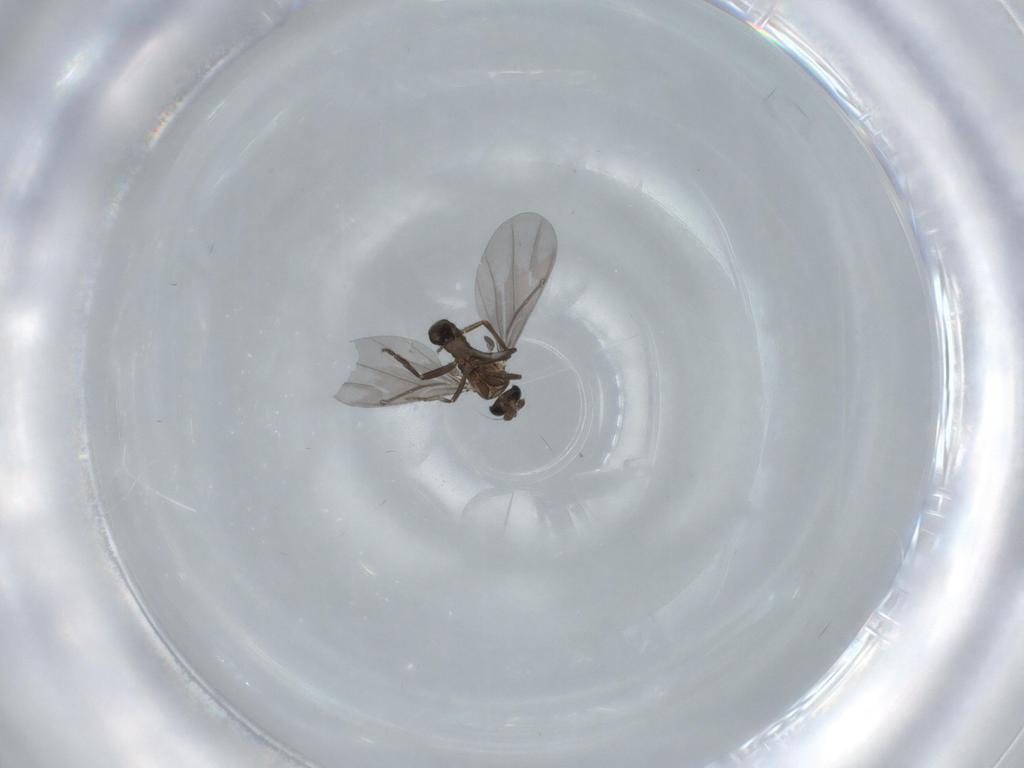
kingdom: Animalia
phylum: Arthropoda
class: Insecta
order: Diptera
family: Phoridae
